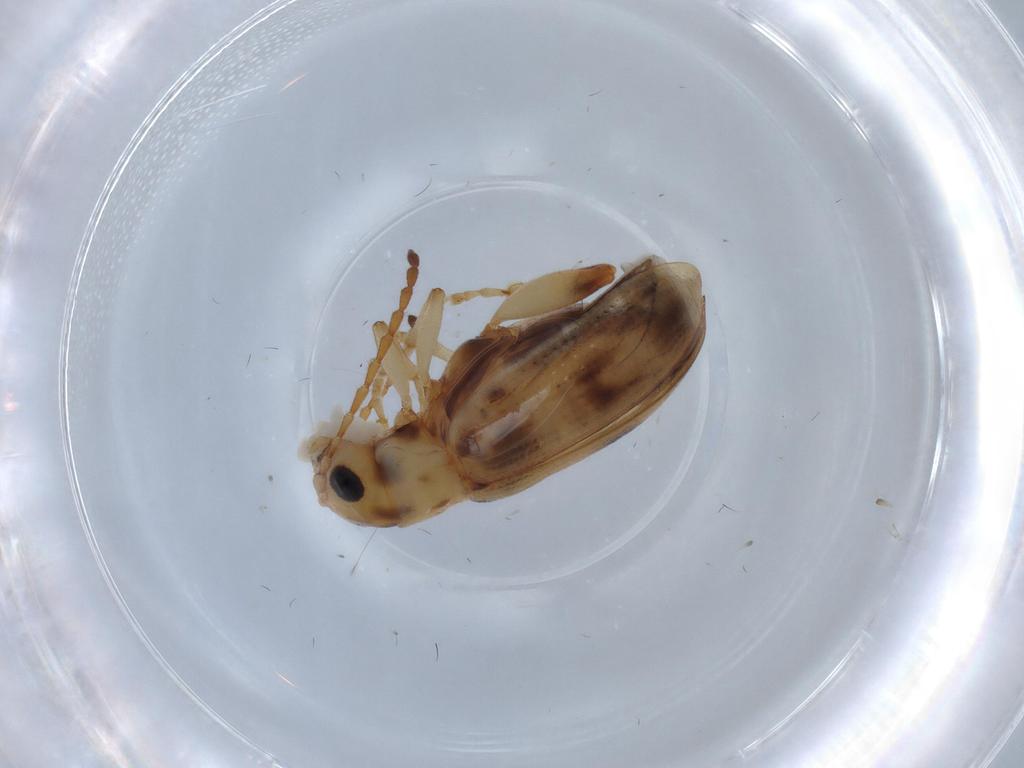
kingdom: Animalia
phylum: Arthropoda
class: Insecta
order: Coleoptera
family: Chrysomelidae
